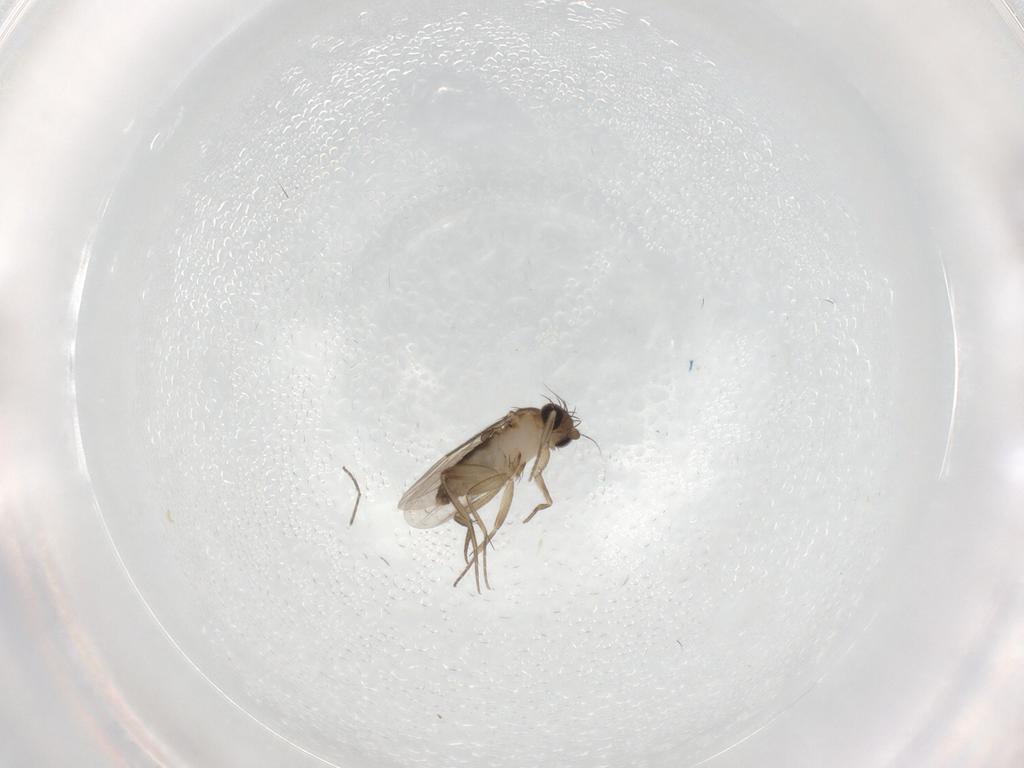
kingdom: Animalia
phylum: Arthropoda
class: Insecta
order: Diptera
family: Phoridae
